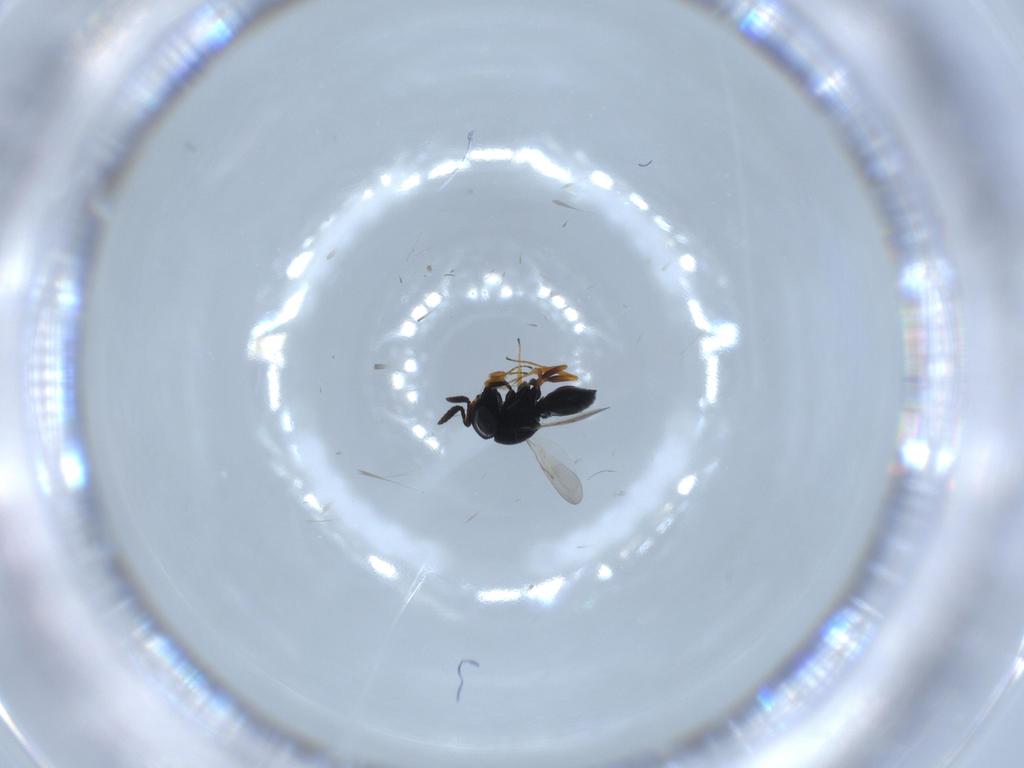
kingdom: Animalia
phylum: Arthropoda
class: Insecta
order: Hymenoptera
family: Scelionidae
